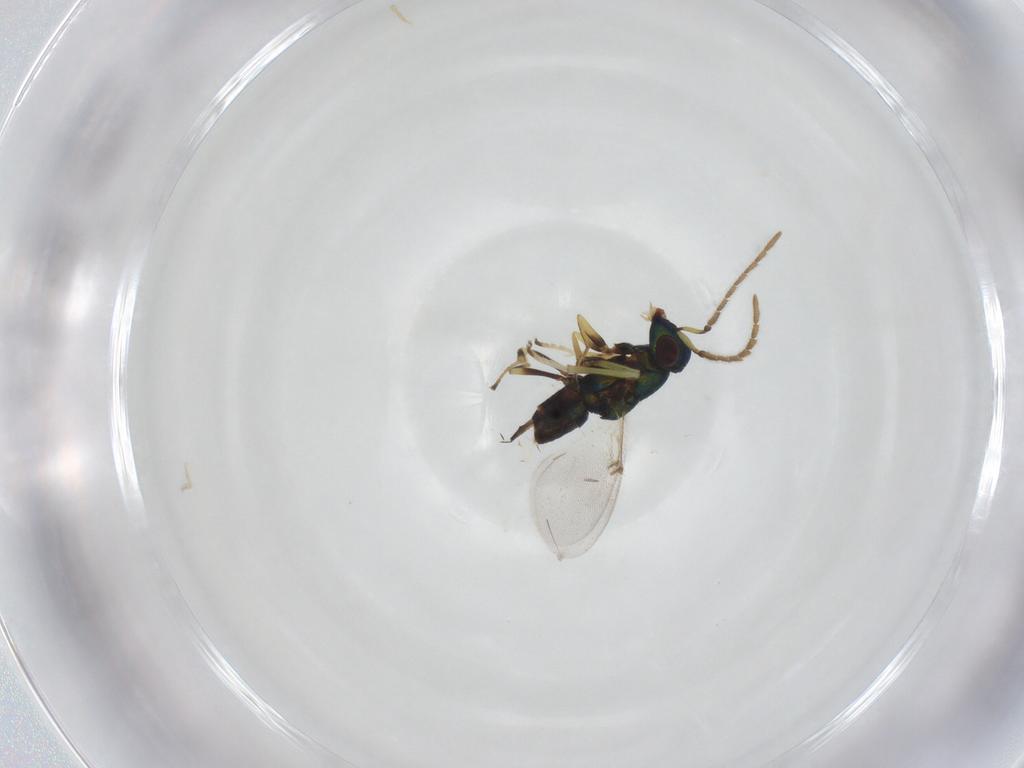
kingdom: Animalia
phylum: Arthropoda
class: Insecta
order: Hymenoptera
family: Encyrtidae
